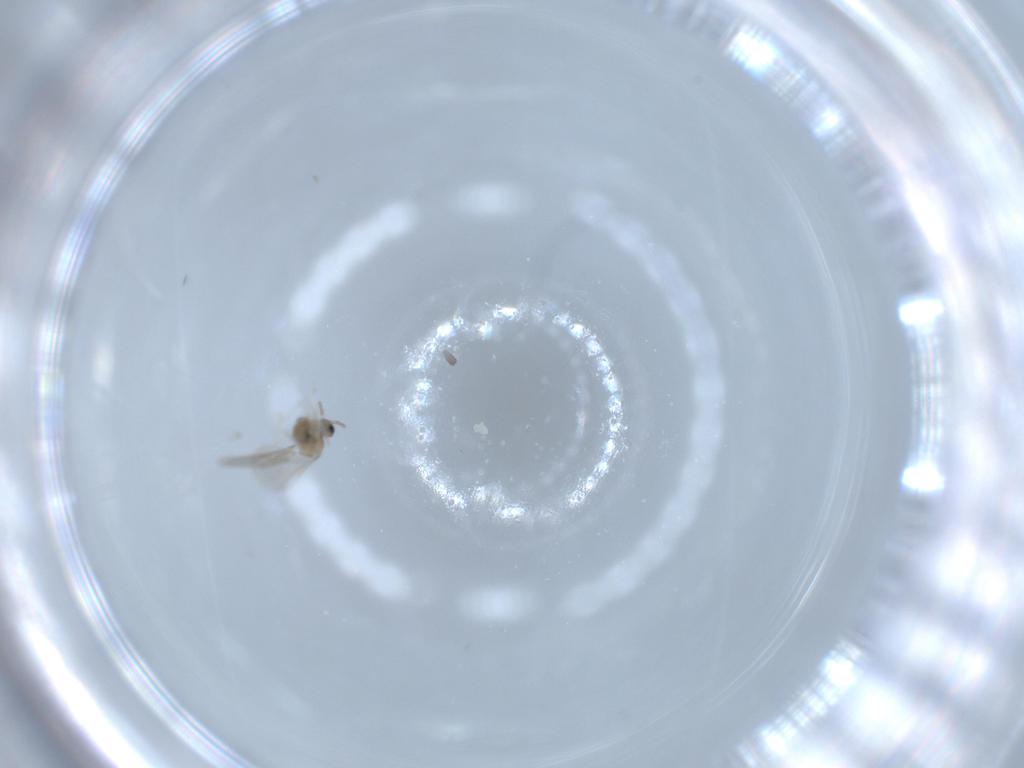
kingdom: Animalia
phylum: Arthropoda
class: Insecta
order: Diptera
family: Cecidomyiidae
